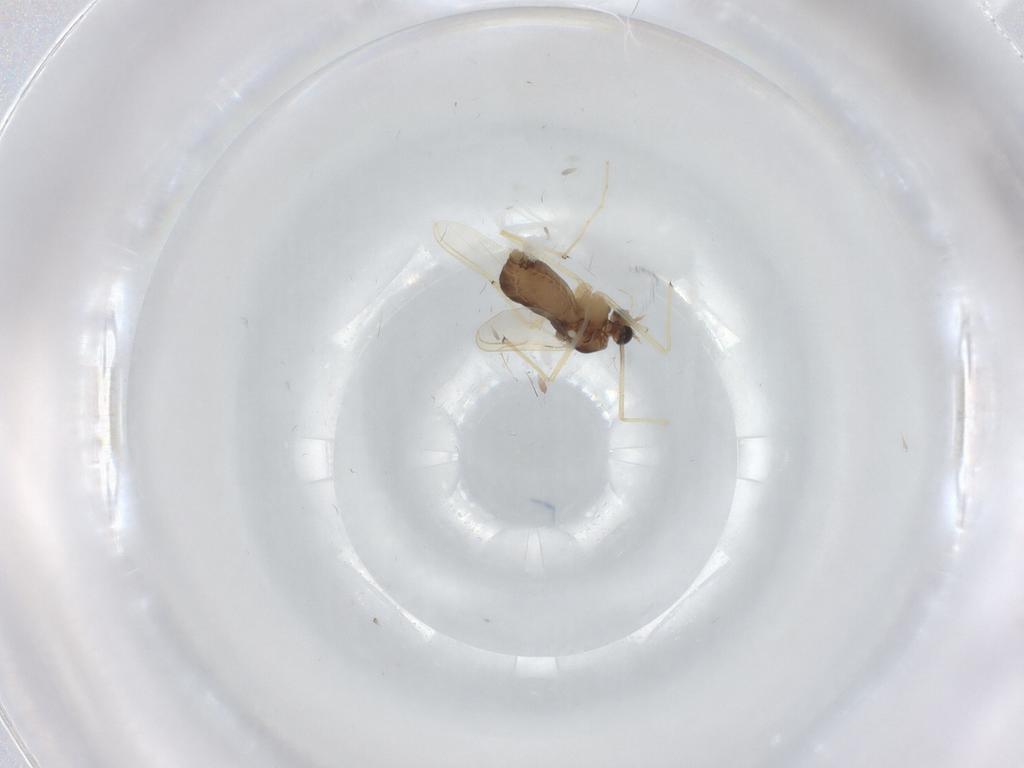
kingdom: Animalia
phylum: Arthropoda
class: Insecta
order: Diptera
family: Chironomidae
